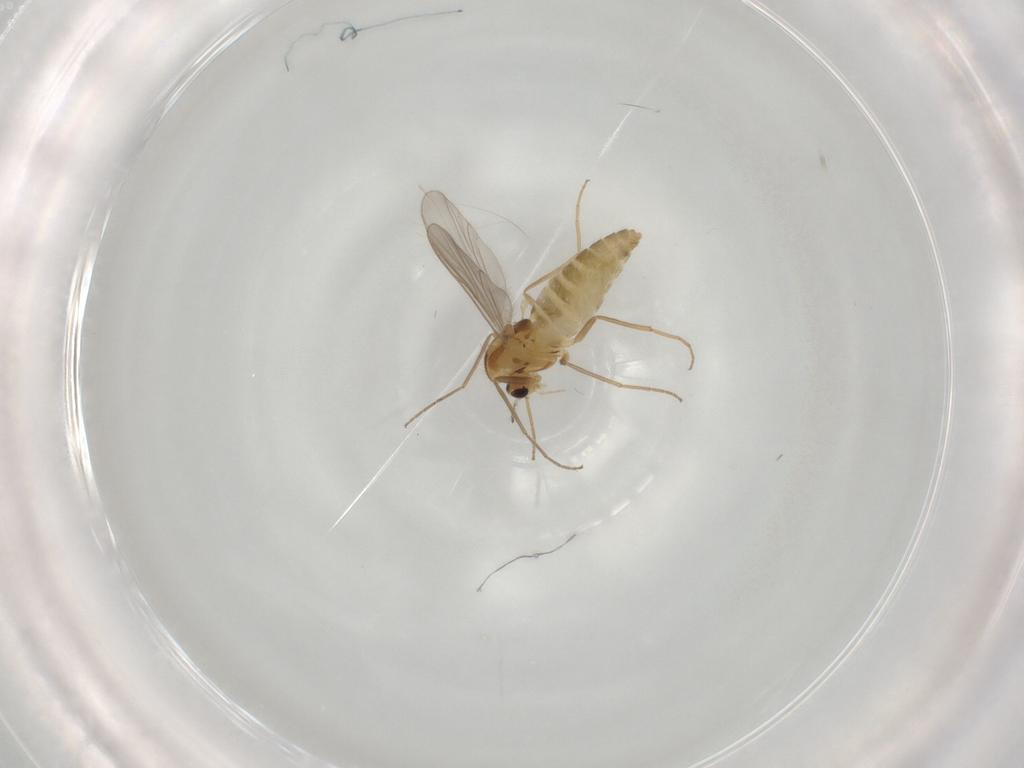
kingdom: Animalia
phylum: Arthropoda
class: Insecta
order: Diptera
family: Chironomidae
